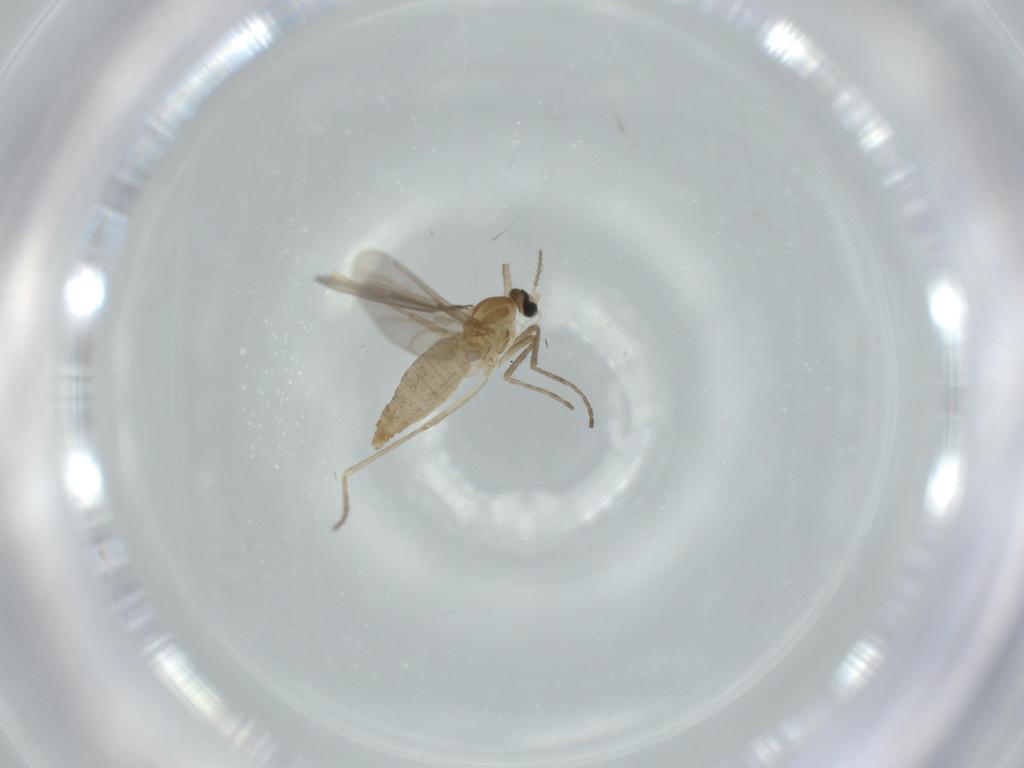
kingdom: Animalia
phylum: Arthropoda
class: Insecta
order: Diptera
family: Cecidomyiidae
